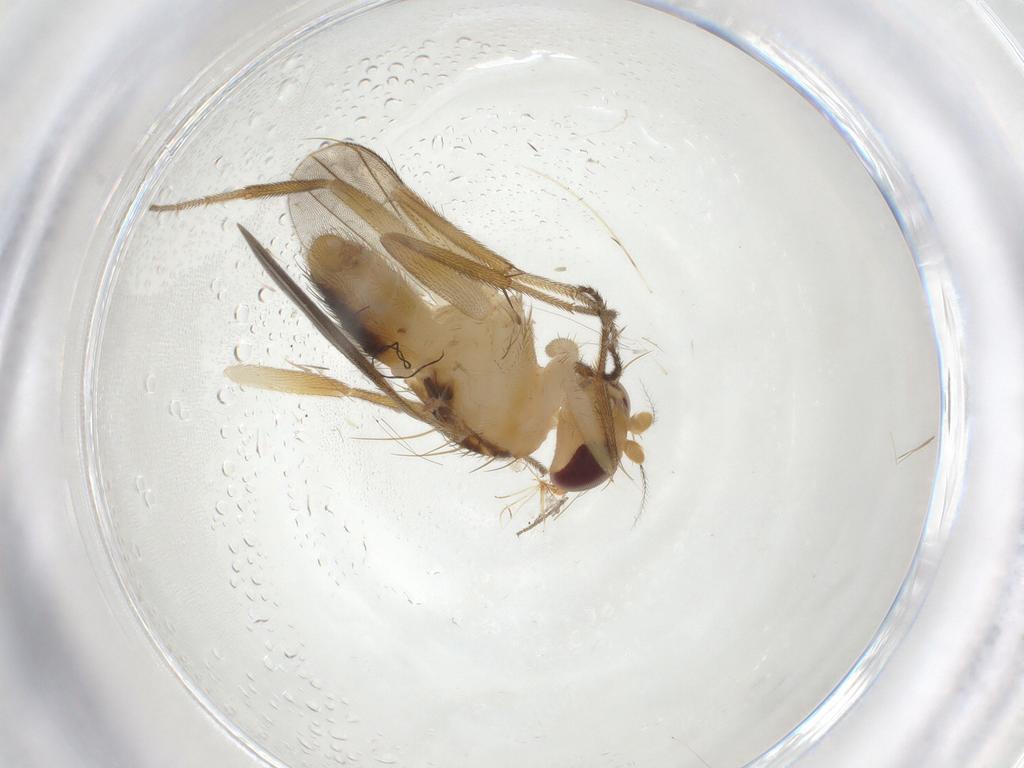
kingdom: Animalia
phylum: Arthropoda
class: Insecta
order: Diptera
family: Agromyzidae
